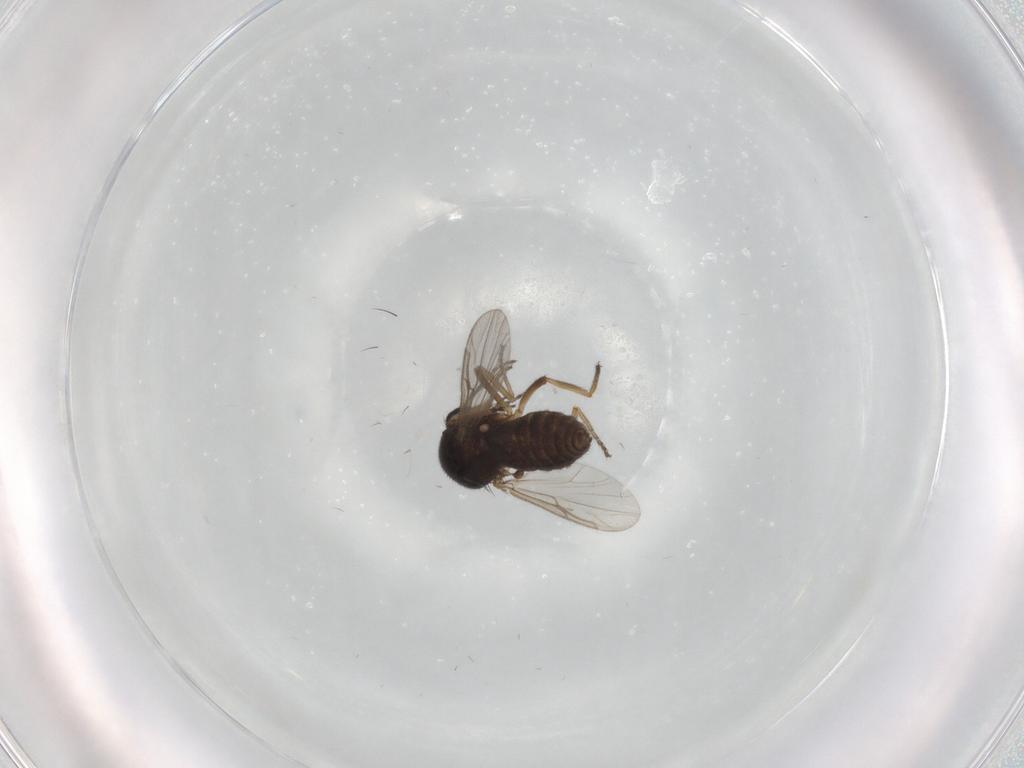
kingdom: Animalia
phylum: Arthropoda
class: Insecta
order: Diptera
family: Ceratopogonidae
